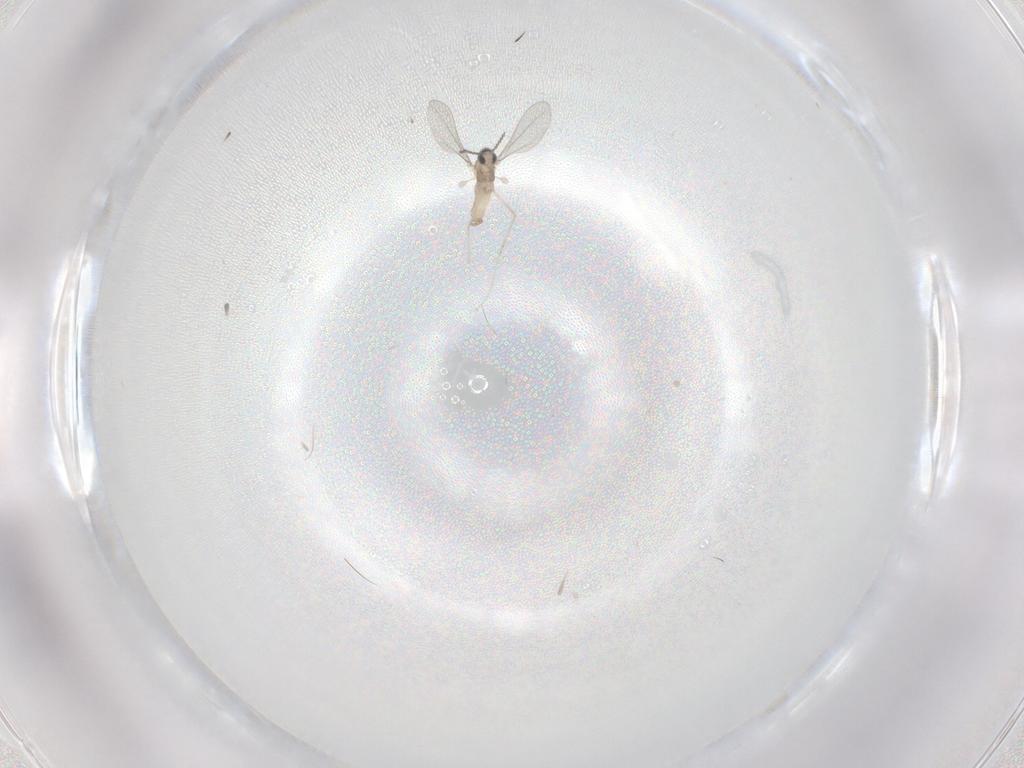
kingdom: Animalia
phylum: Arthropoda
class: Insecta
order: Diptera
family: Cecidomyiidae
